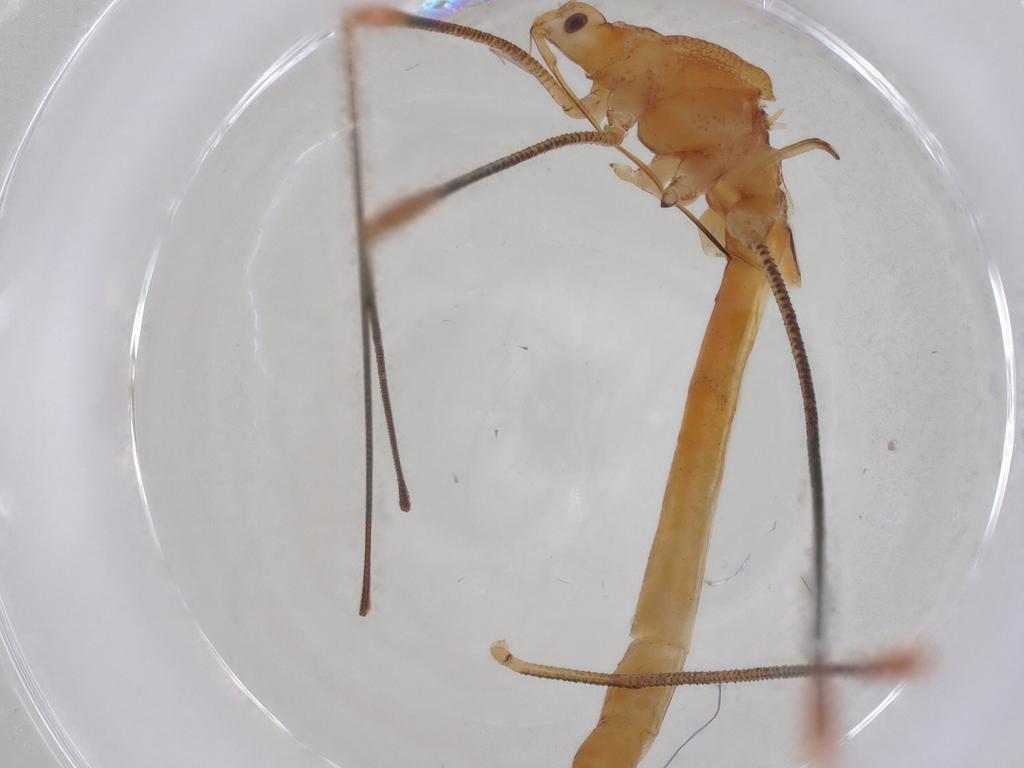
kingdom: Animalia
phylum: Arthropoda
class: Insecta
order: Hemiptera
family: Berytidae
